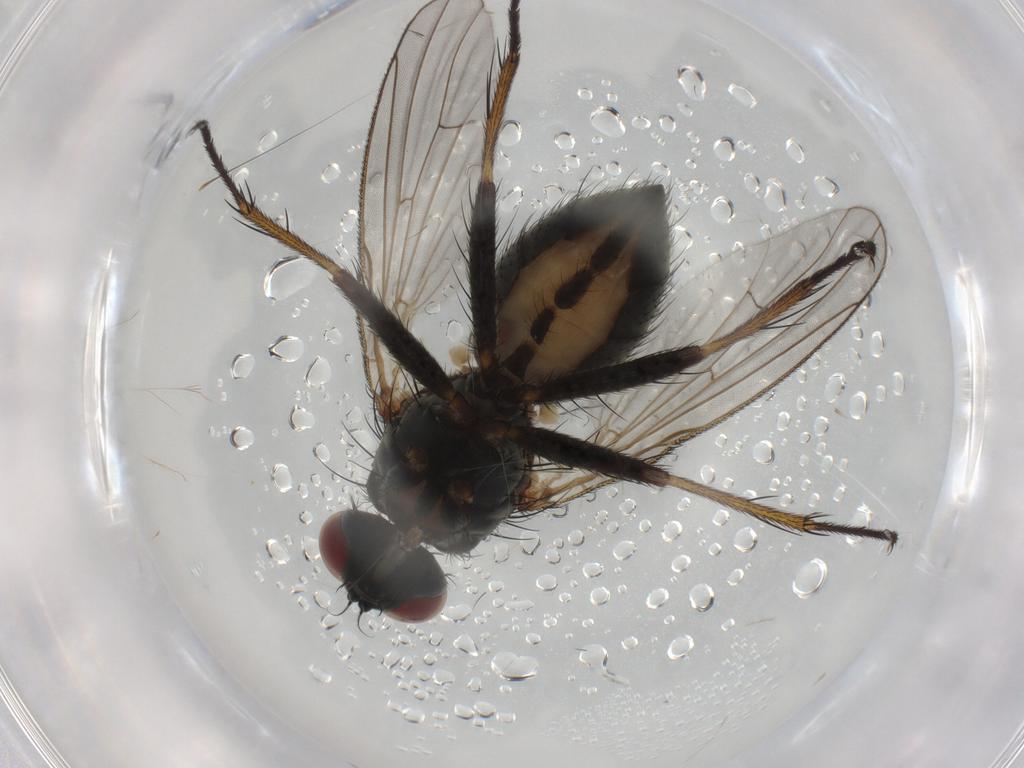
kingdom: Animalia
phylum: Arthropoda
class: Insecta
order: Diptera
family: Muscidae
